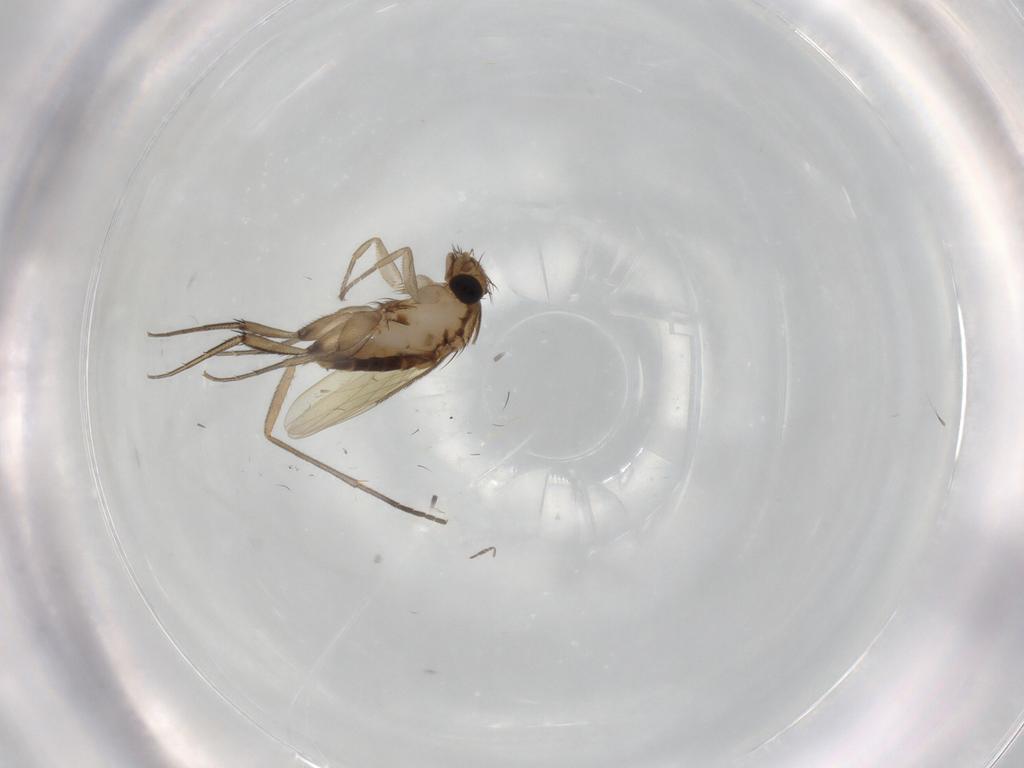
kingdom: Animalia
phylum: Arthropoda
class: Insecta
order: Diptera
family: Phoridae
